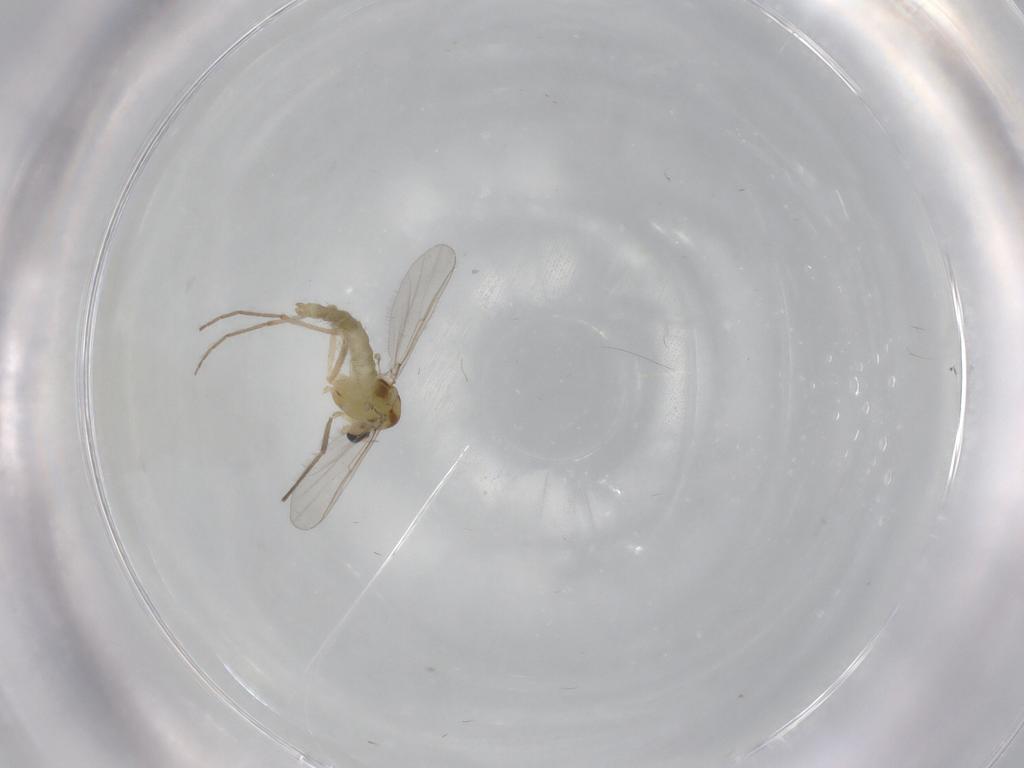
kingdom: Animalia
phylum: Arthropoda
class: Insecta
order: Diptera
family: Chironomidae
